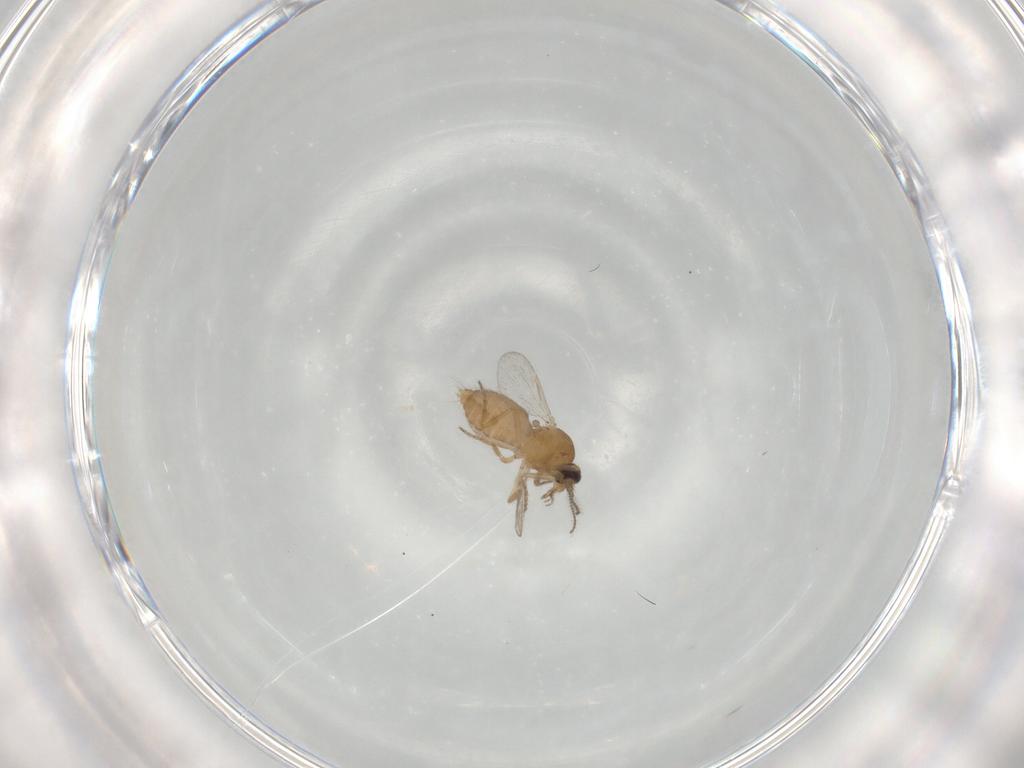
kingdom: Animalia
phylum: Arthropoda
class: Insecta
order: Diptera
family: Ceratopogonidae
